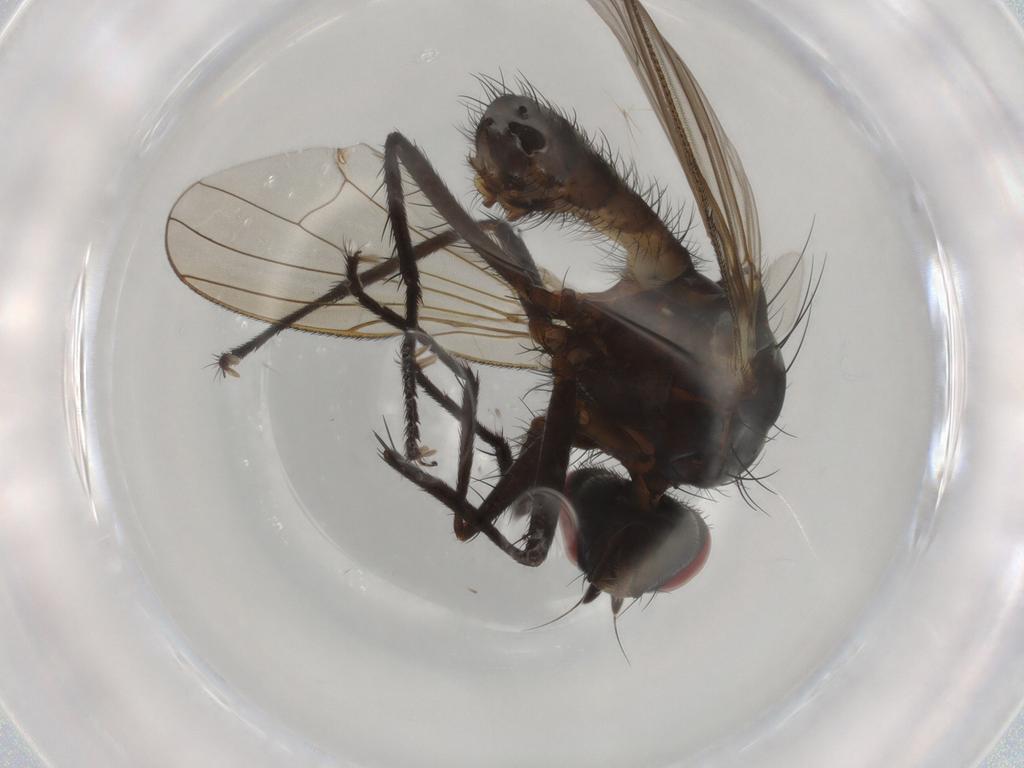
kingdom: Animalia
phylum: Arthropoda
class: Insecta
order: Diptera
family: Anthomyiidae
